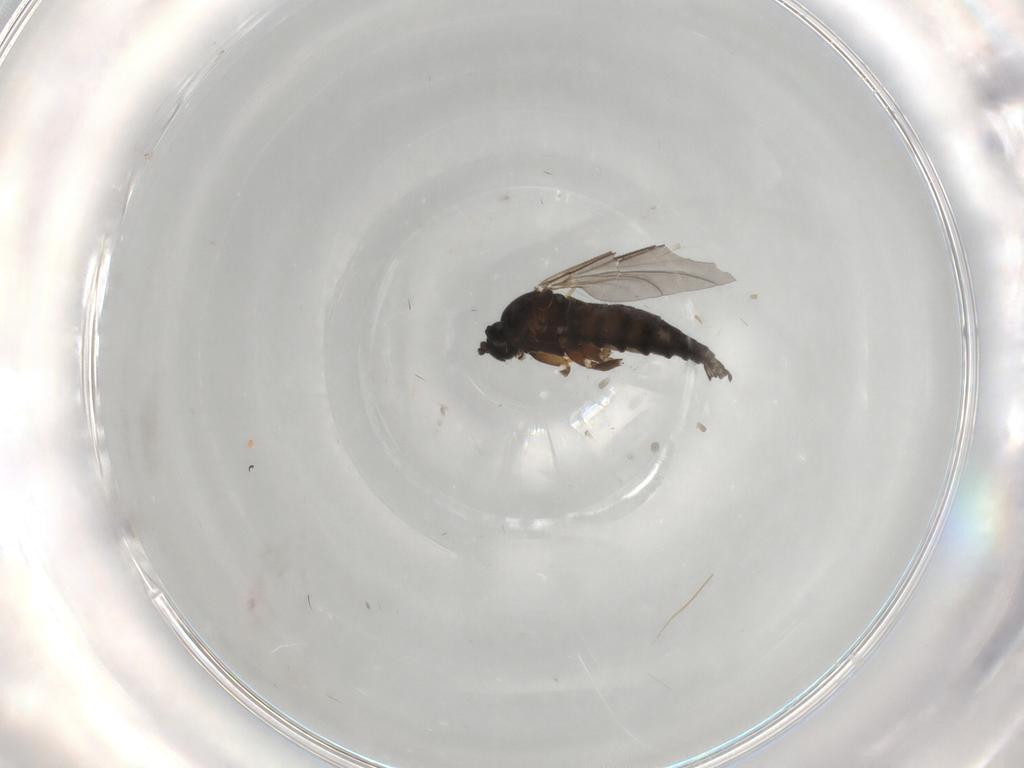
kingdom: Animalia
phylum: Arthropoda
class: Insecta
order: Diptera
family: Sciaridae
